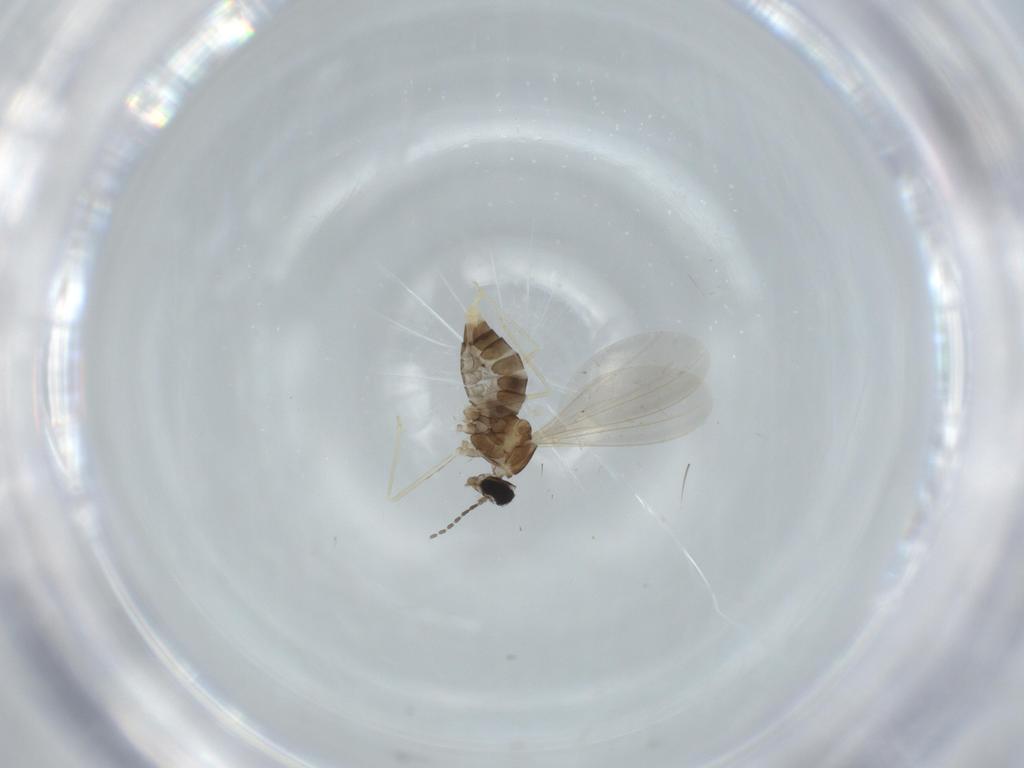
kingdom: Animalia
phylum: Arthropoda
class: Insecta
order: Diptera
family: Cecidomyiidae
